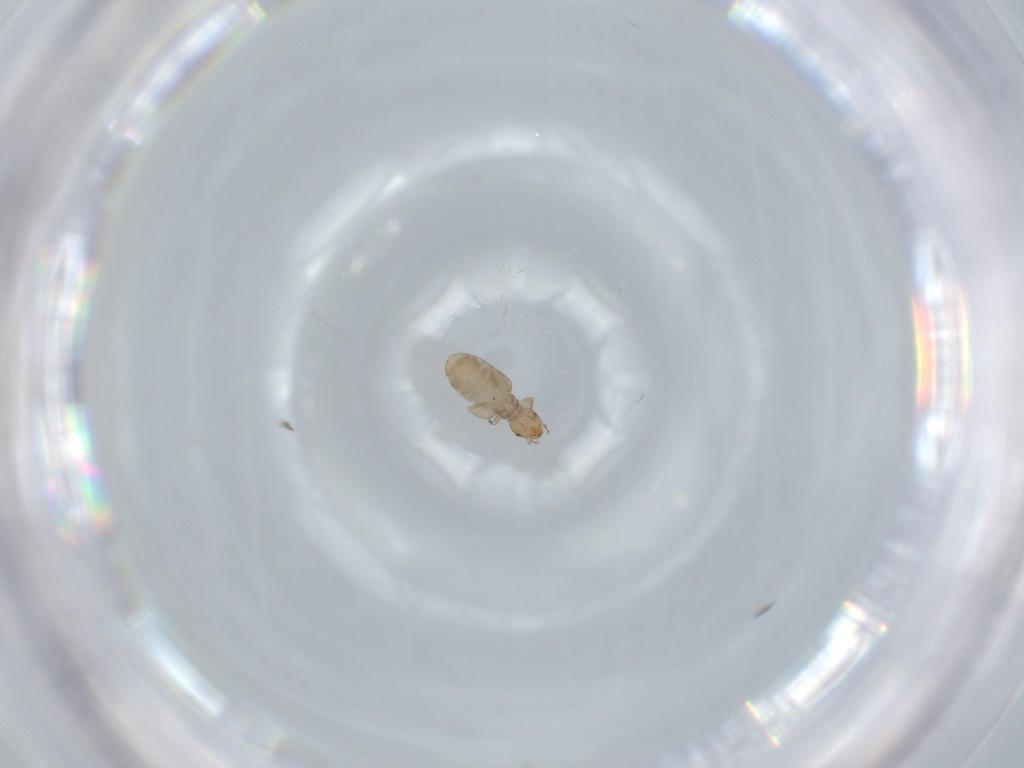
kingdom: Animalia
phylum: Arthropoda
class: Insecta
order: Psocodea
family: Liposcelididae
